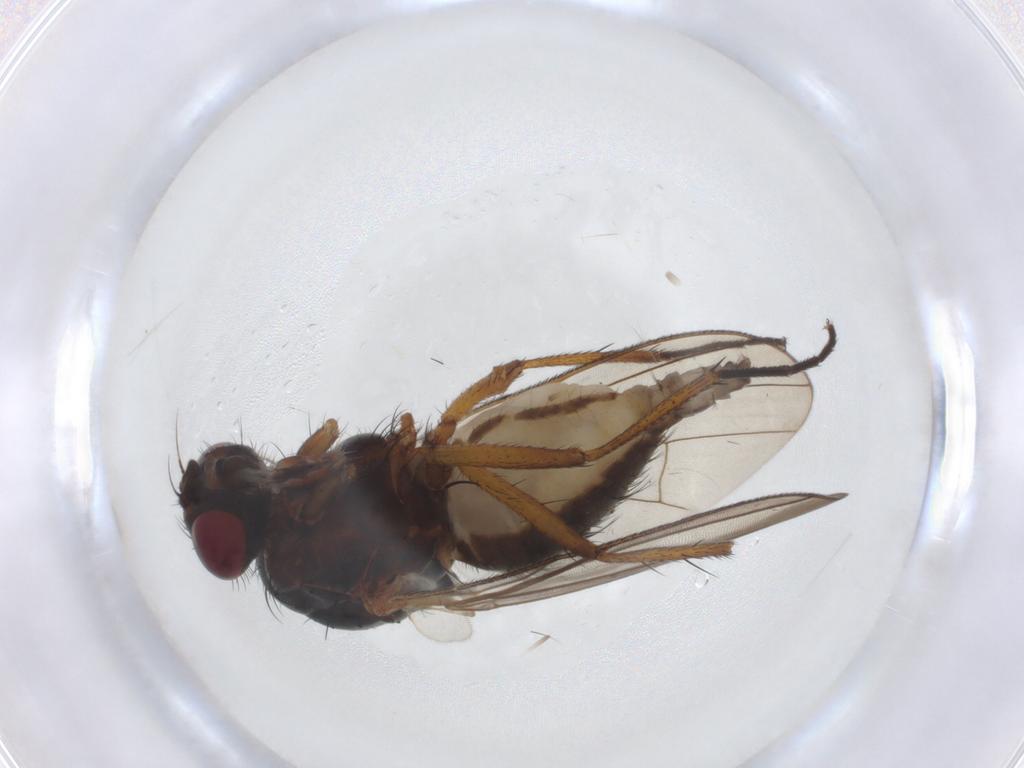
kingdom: Animalia
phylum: Arthropoda
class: Insecta
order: Diptera
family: Anthomyiidae
